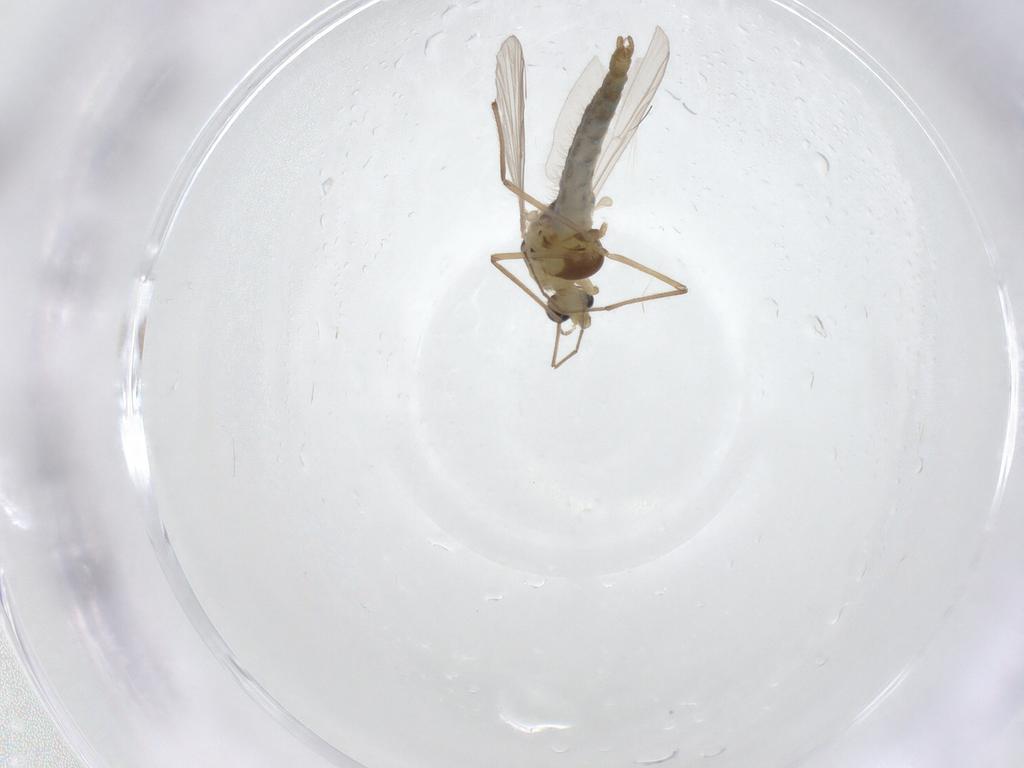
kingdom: Animalia
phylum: Arthropoda
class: Insecta
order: Diptera
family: Chironomidae
